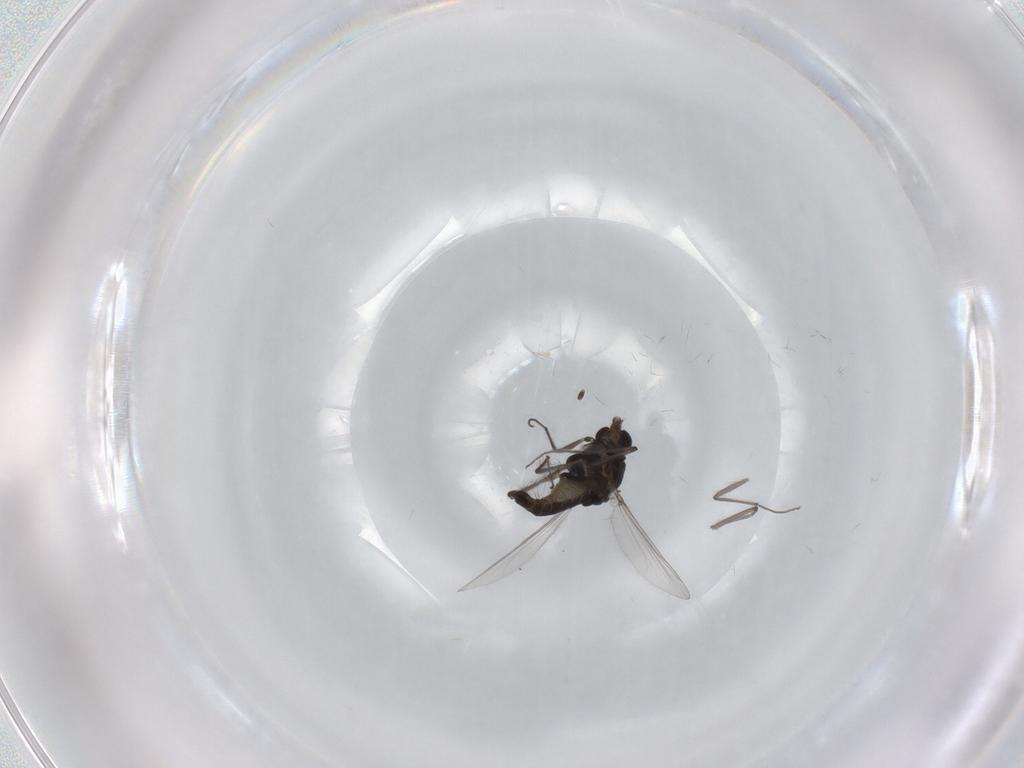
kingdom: Animalia
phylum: Arthropoda
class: Insecta
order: Diptera
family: Chironomidae
